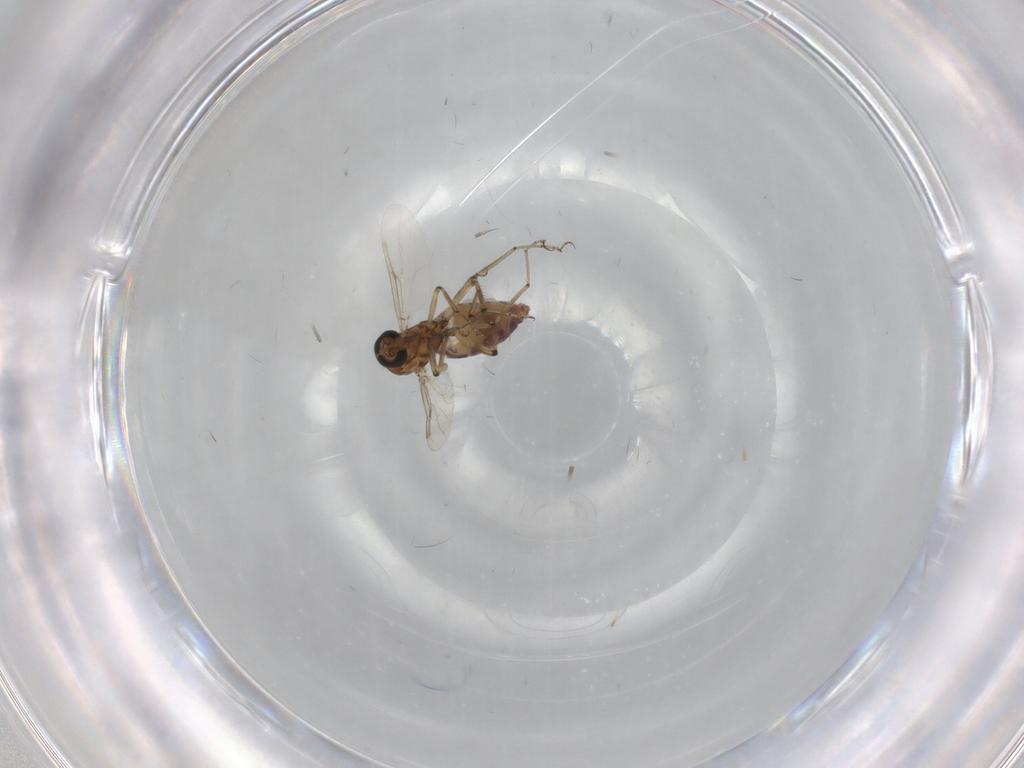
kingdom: Animalia
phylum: Arthropoda
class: Insecta
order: Diptera
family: Ceratopogonidae
